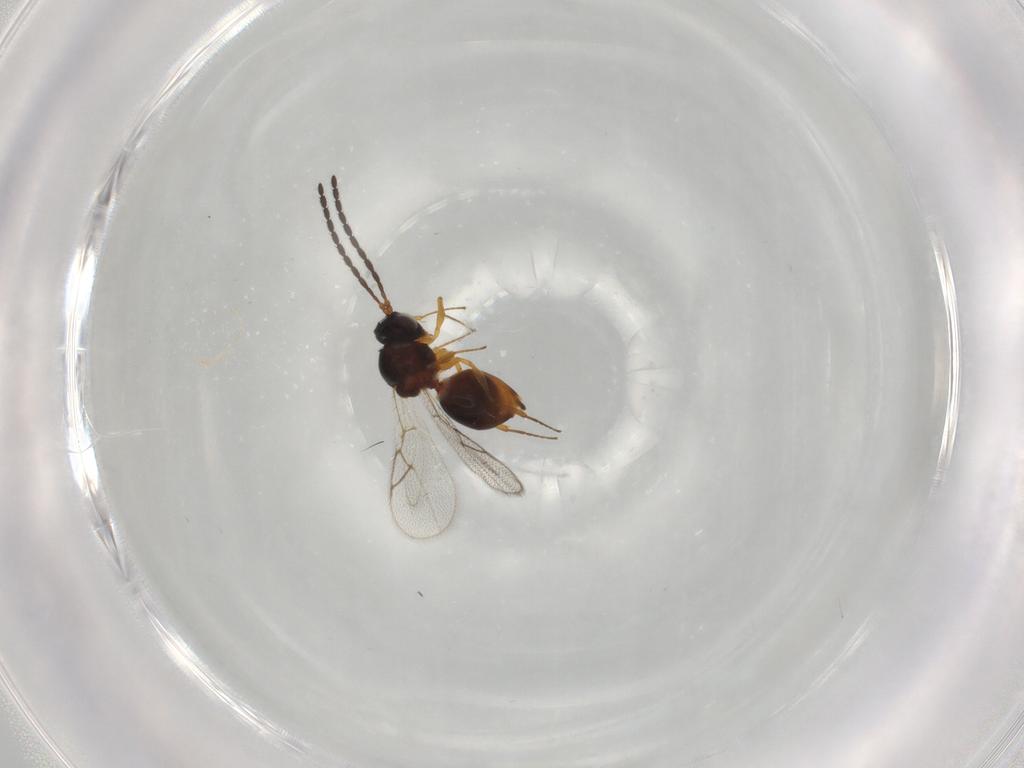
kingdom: Animalia
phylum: Arthropoda
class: Insecta
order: Hymenoptera
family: Figitidae
